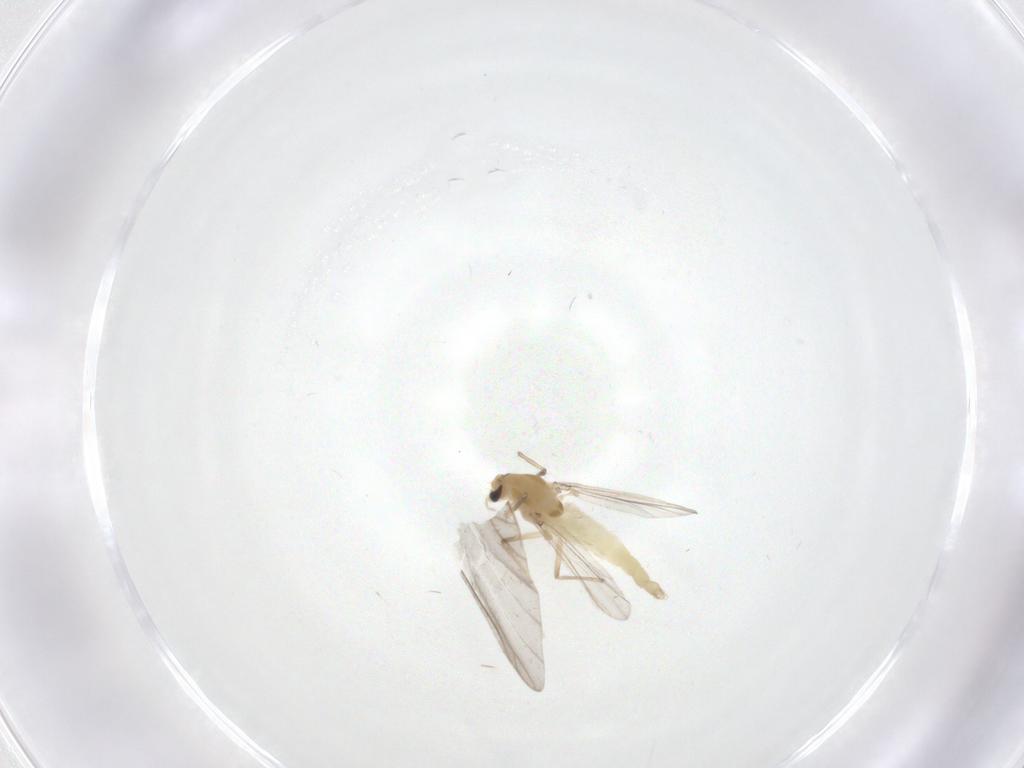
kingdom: Animalia
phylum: Arthropoda
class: Insecta
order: Diptera
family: Chironomidae
